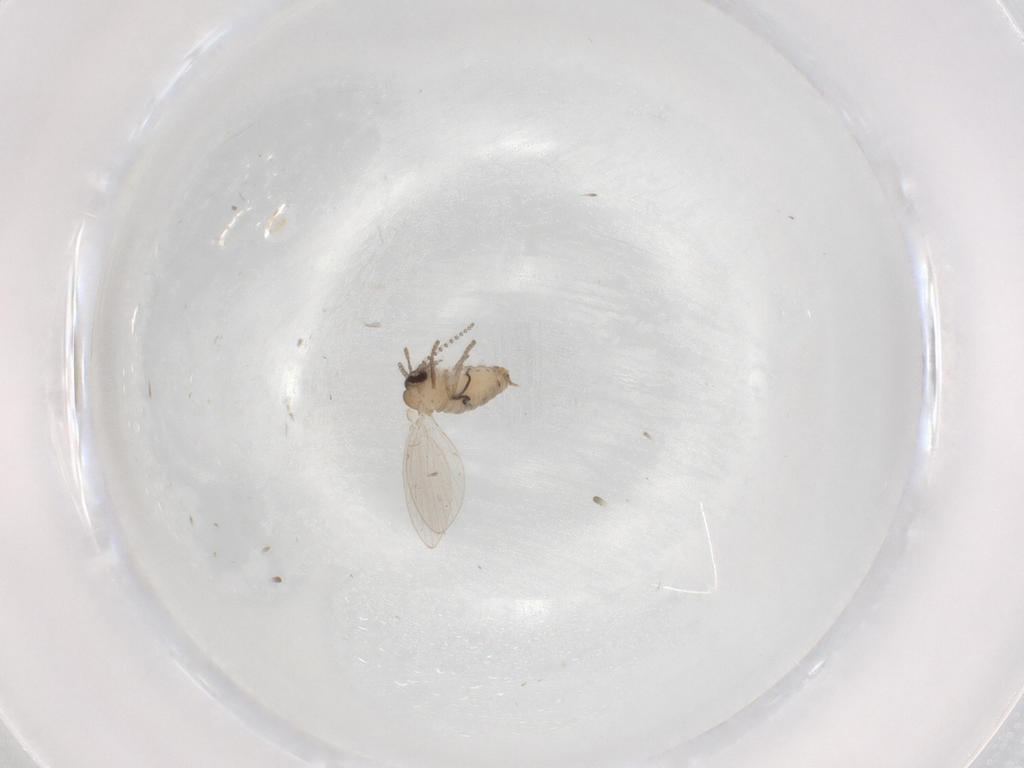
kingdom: Animalia
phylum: Arthropoda
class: Insecta
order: Diptera
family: Psychodidae
